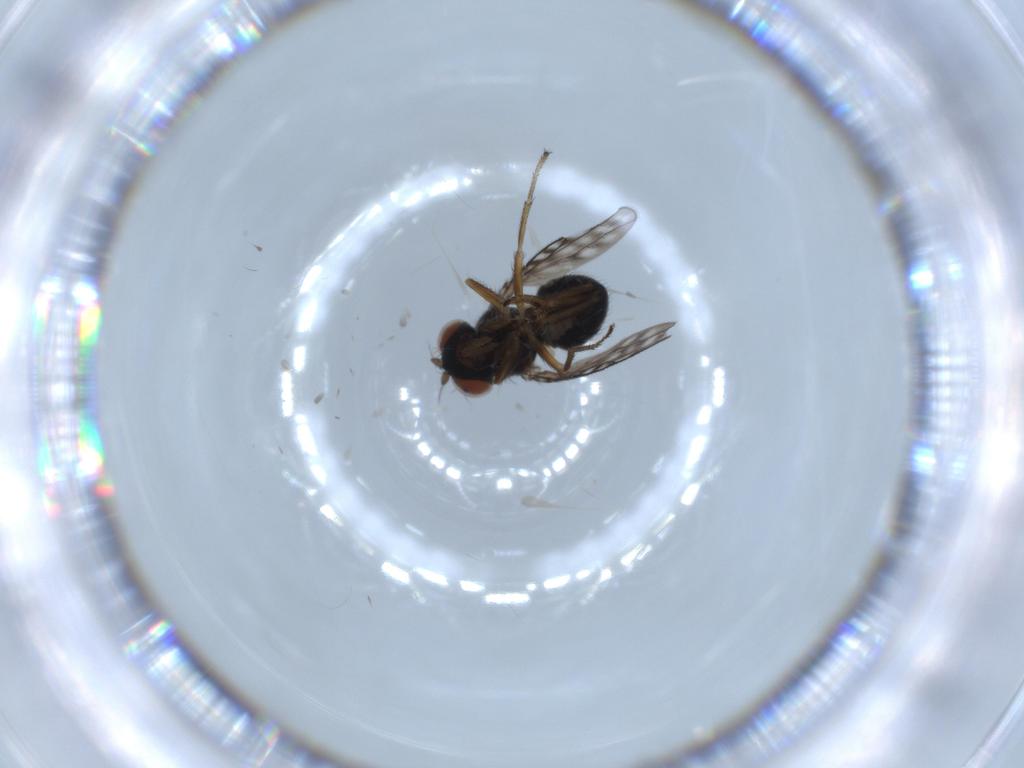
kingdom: Animalia
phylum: Arthropoda
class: Insecta
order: Diptera
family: Ephydridae
